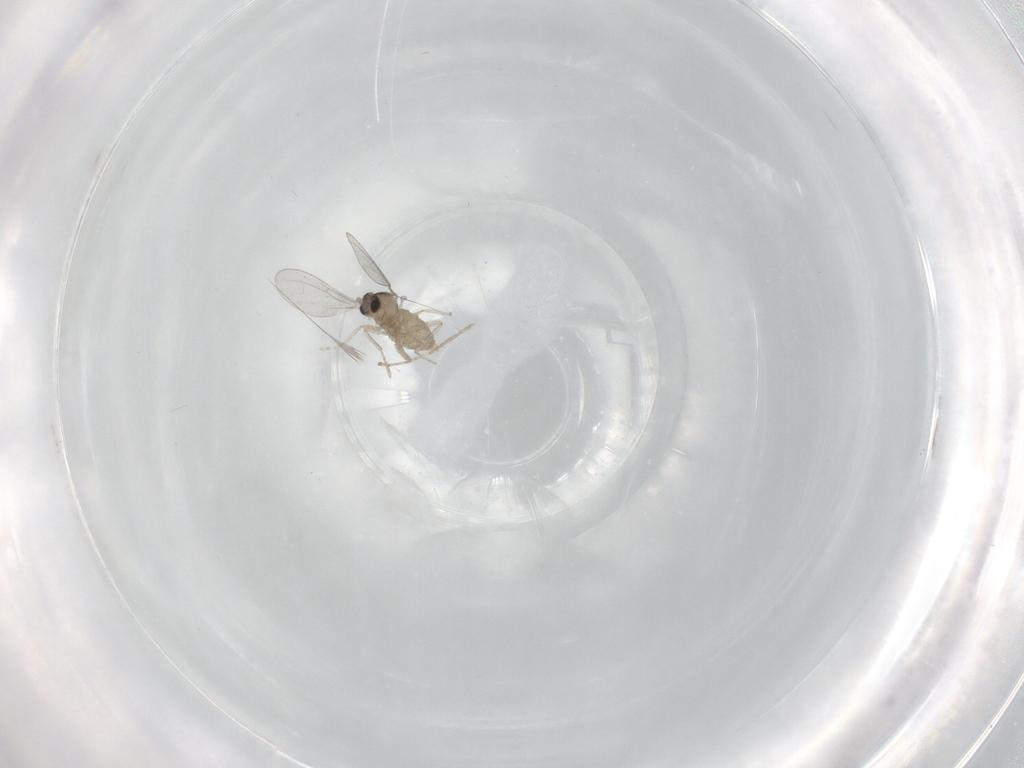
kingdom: Animalia
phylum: Arthropoda
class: Insecta
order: Diptera
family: Cecidomyiidae
